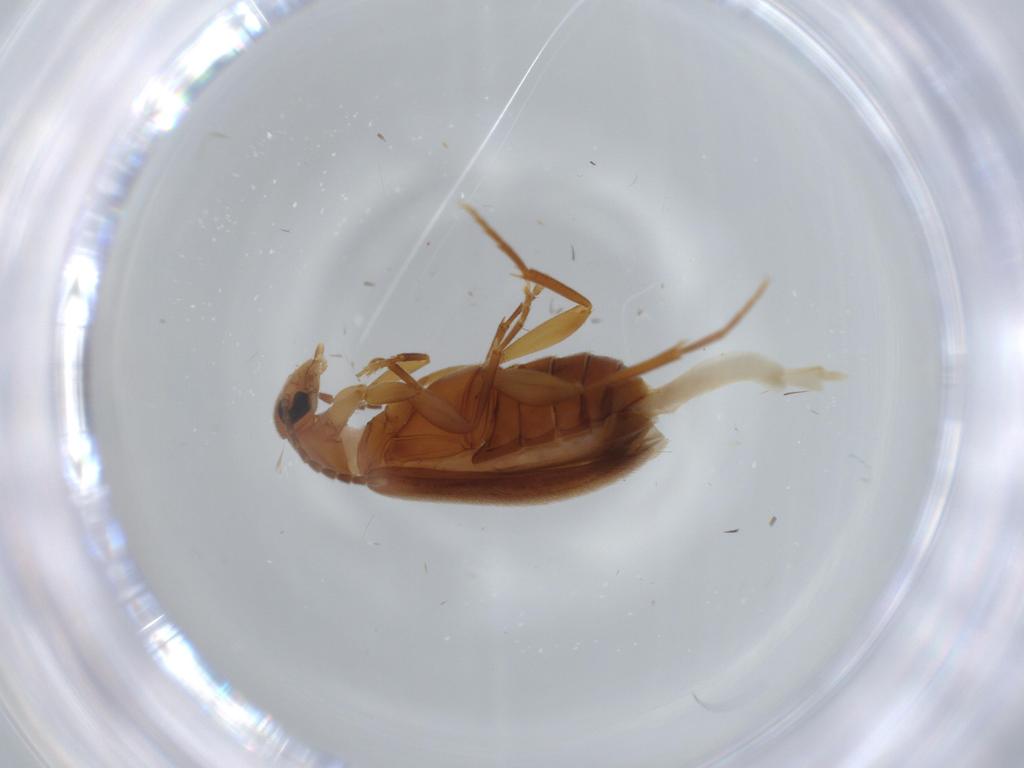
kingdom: Animalia
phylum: Arthropoda
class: Insecta
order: Coleoptera
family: Scraptiidae
